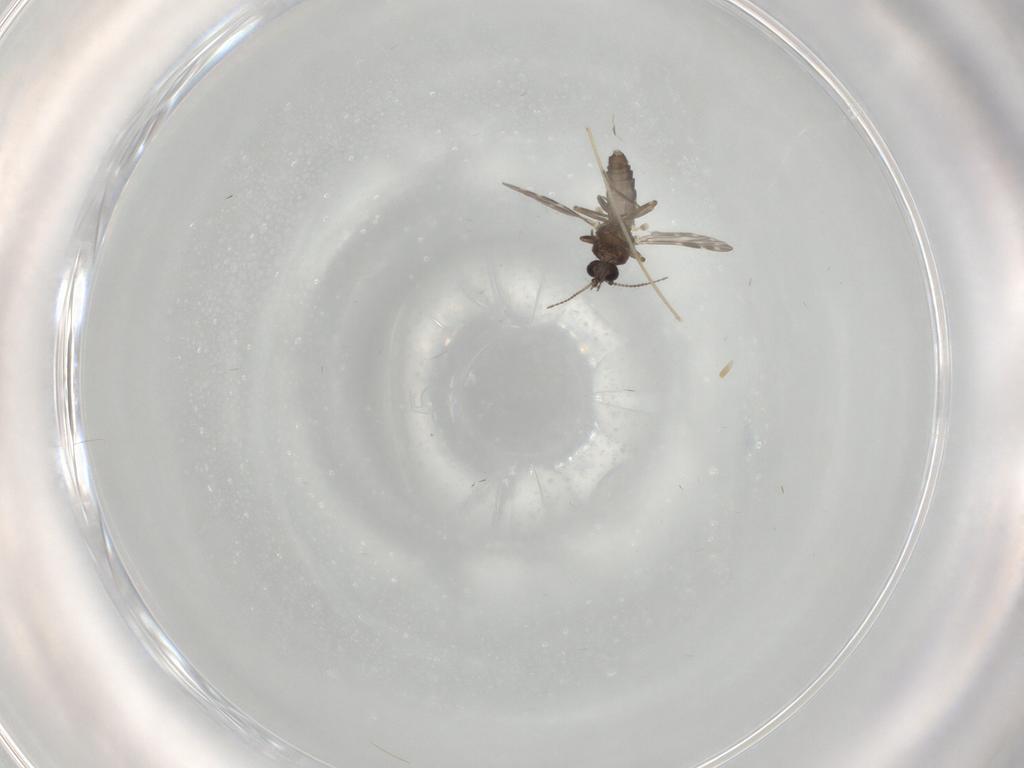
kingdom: Animalia
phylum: Arthropoda
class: Insecta
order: Diptera
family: Chironomidae
